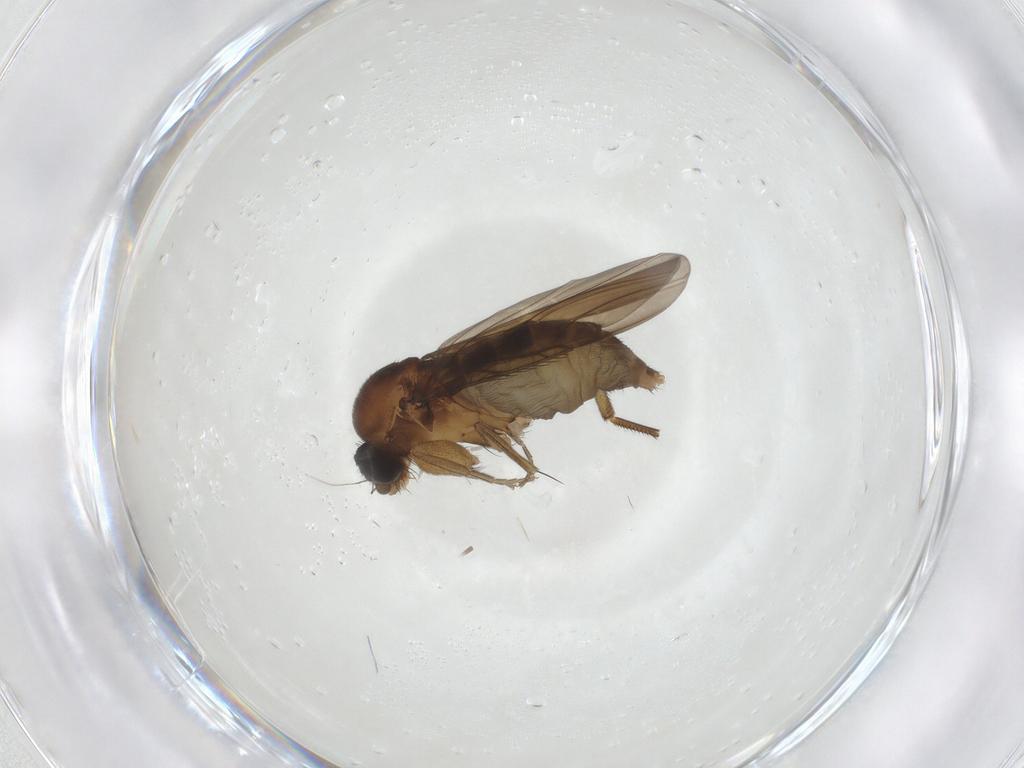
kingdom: Animalia
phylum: Arthropoda
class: Insecta
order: Diptera
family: Phoridae
